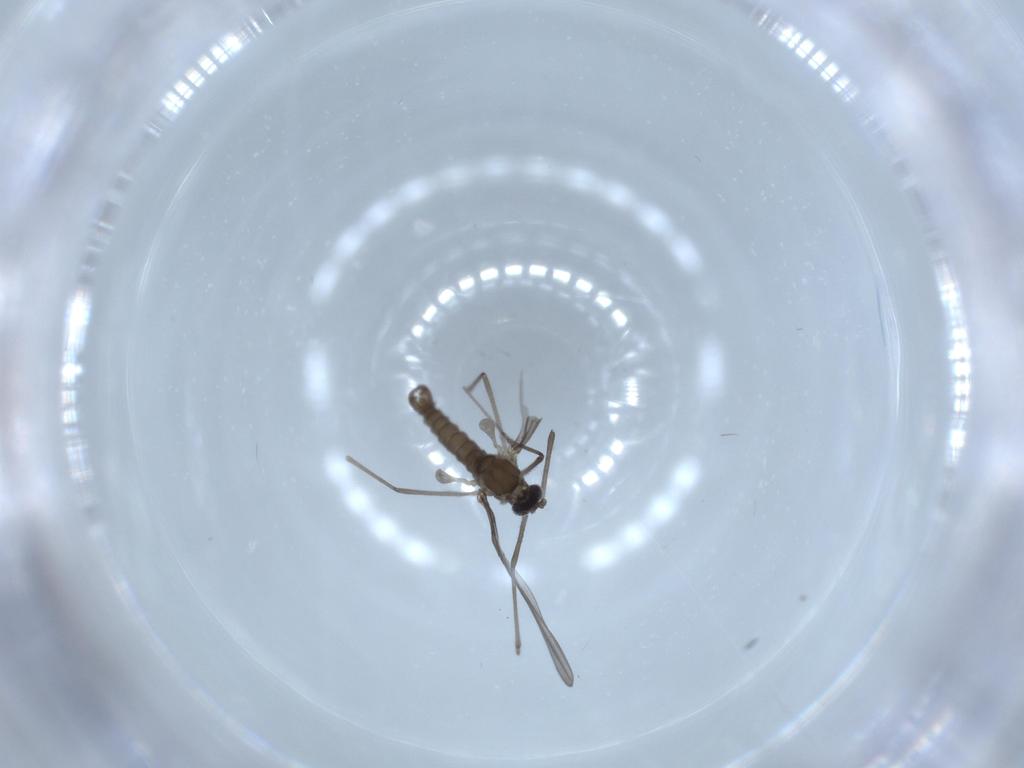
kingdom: Animalia
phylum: Arthropoda
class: Insecta
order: Diptera
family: Cecidomyiidae
